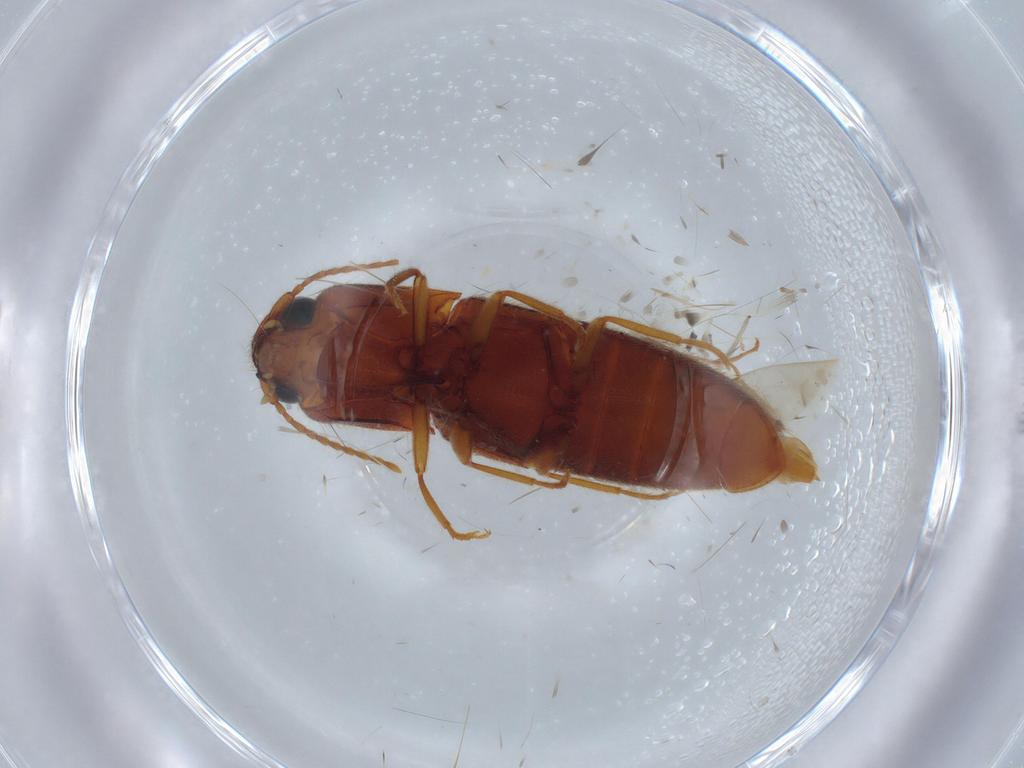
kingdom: Animalia
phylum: Arthropoda
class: Insecta
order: Coleoptera
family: Elateridae
